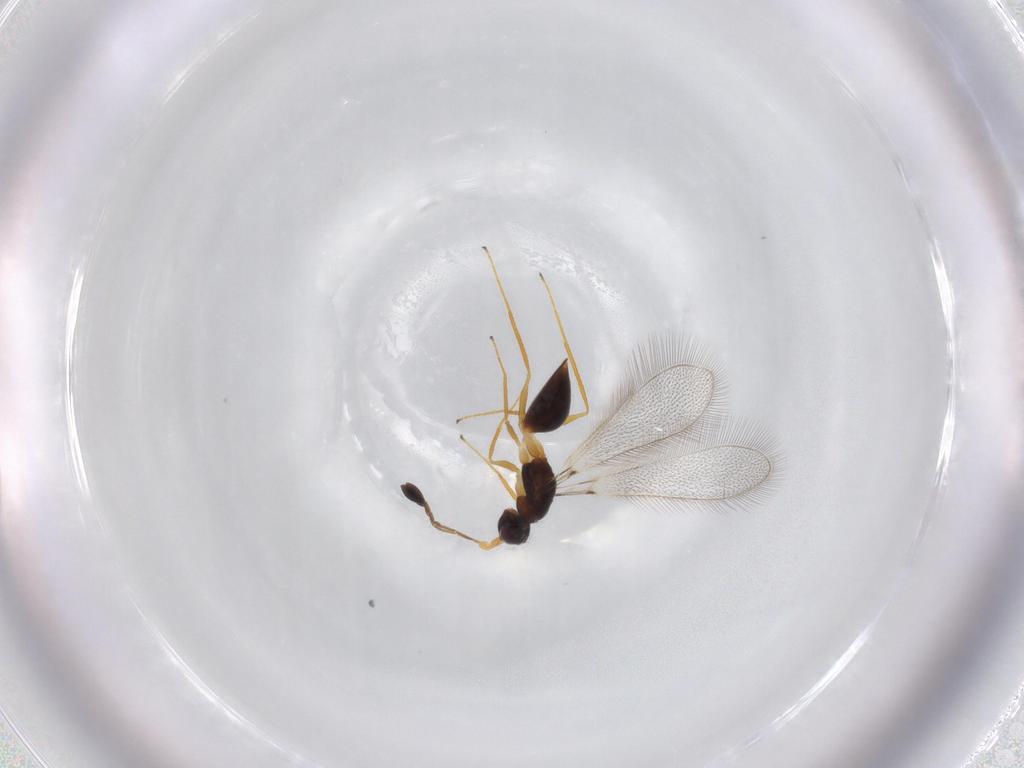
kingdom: Animalia
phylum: Arthropoda
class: Insecta
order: Hymenoptera
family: Mymaridae
